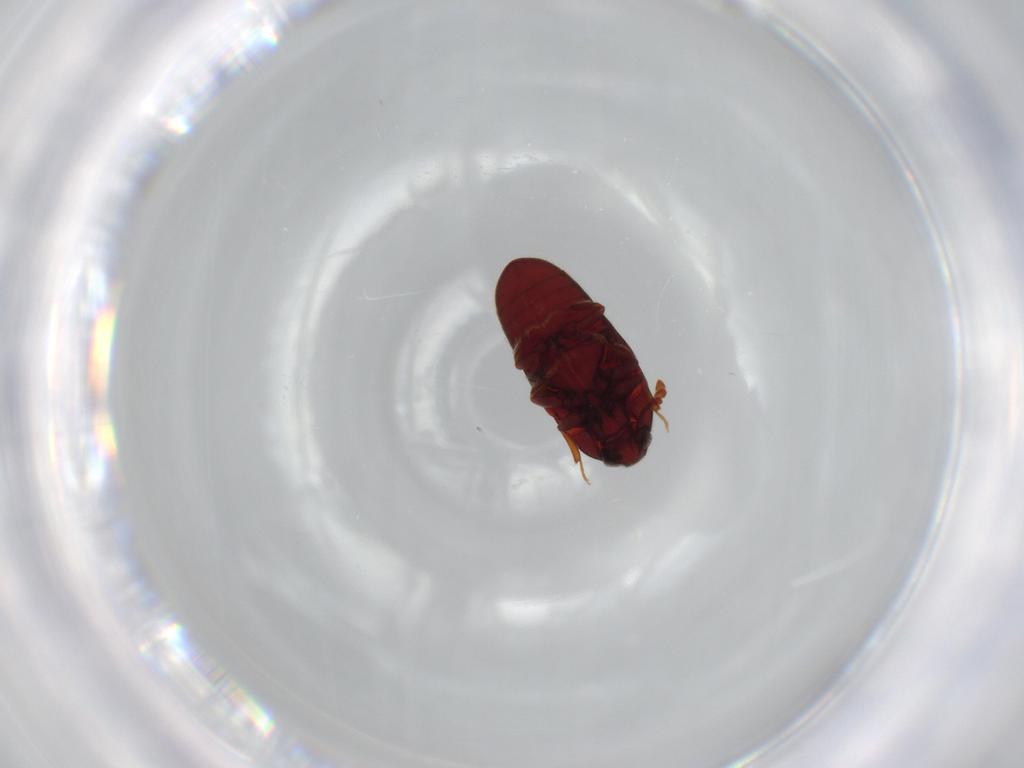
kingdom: Animalia
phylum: Arthropoda
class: Insecta
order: Coleoptera
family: Throscidae
